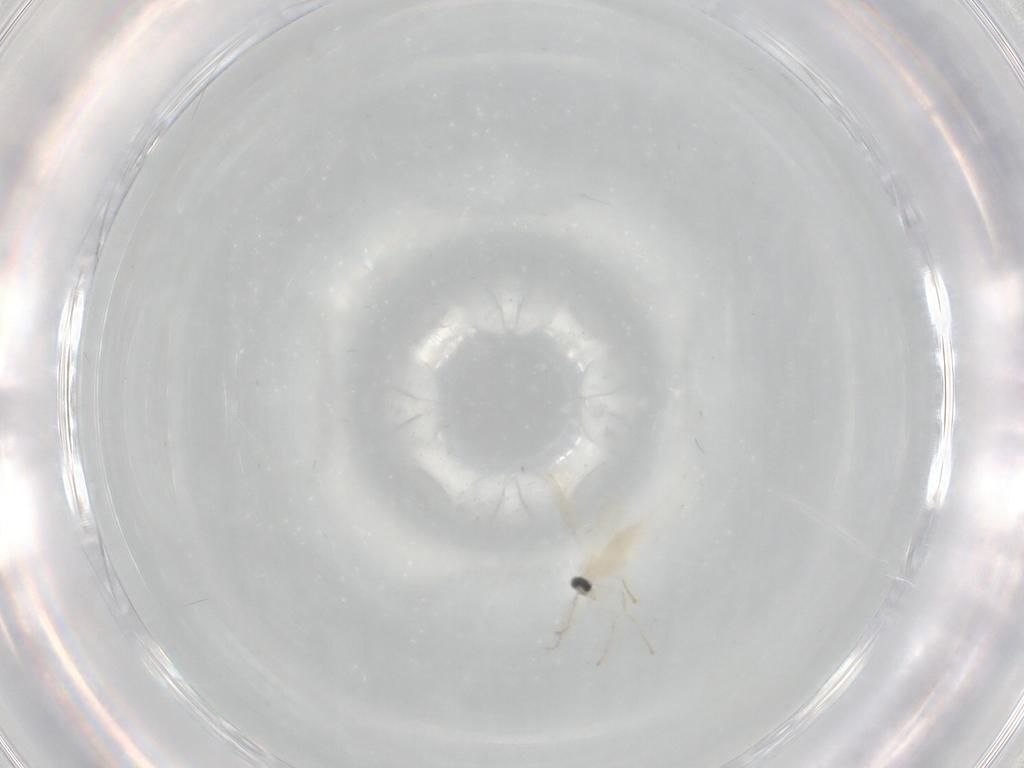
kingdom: Animalia
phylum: Arthropoda
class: Insecta
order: Diptera
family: Cecidomyiidae
